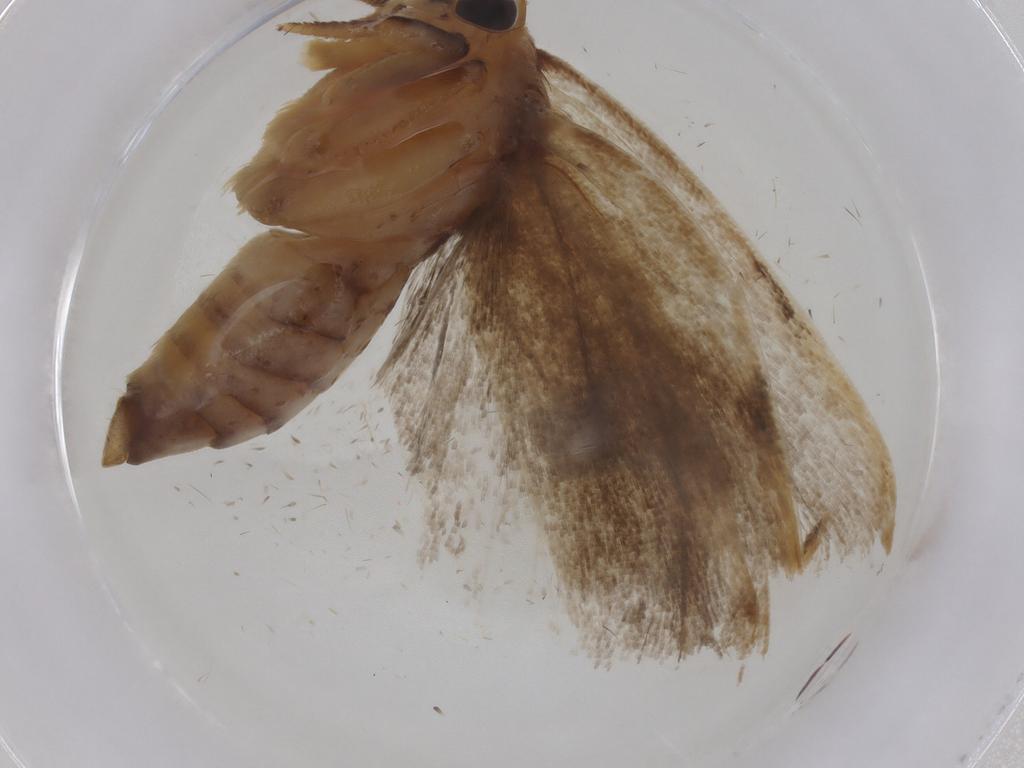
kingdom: Animalia
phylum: Arthropoda
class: Insecta
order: Lepidoptera
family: Depressariidae
